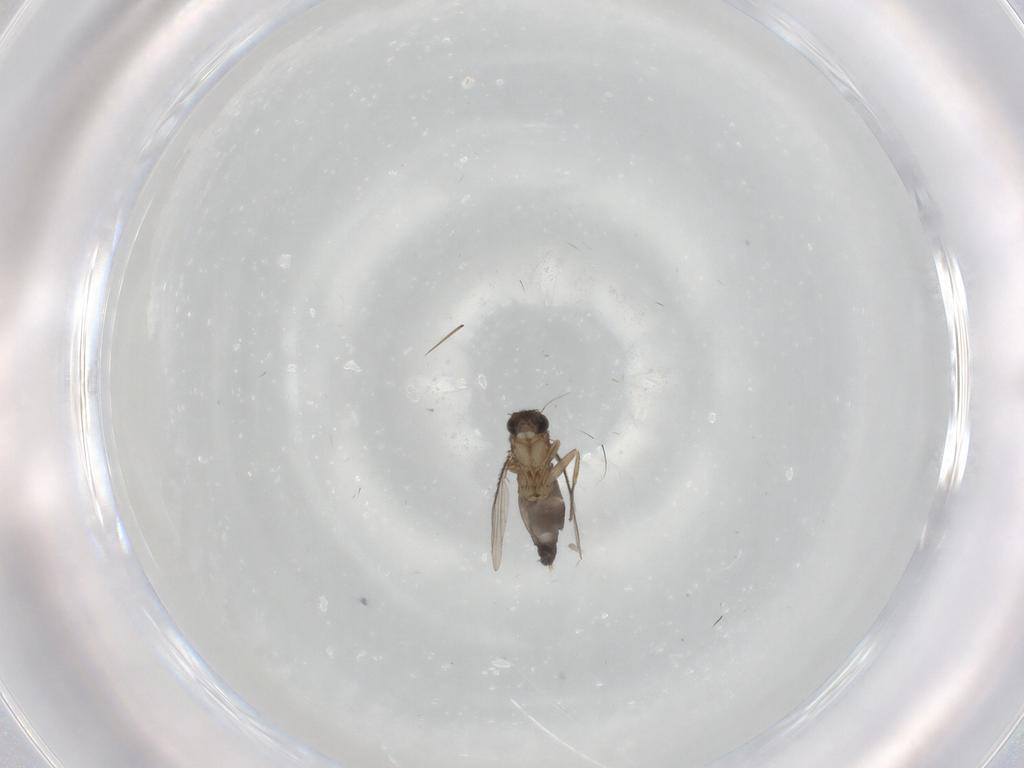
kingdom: Animalia
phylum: Arthropoda
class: Insecta
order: Diptera
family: Phoridae
